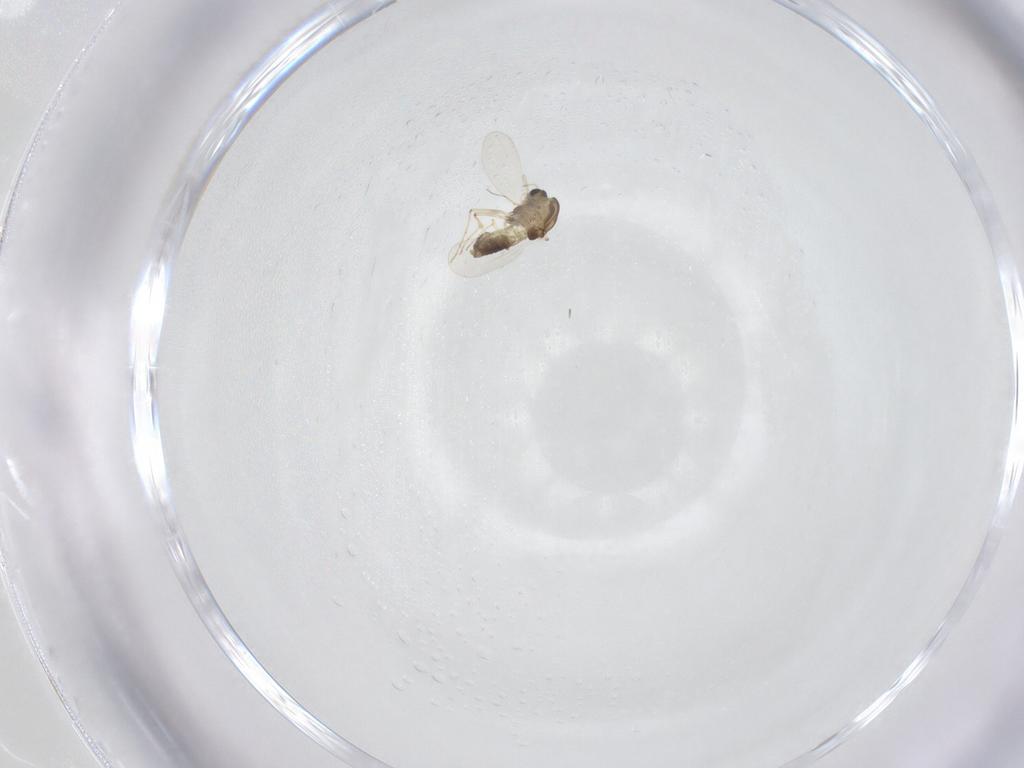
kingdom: Animalia
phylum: Arthropoda
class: Insecta
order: Diptera
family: Chironomidae
